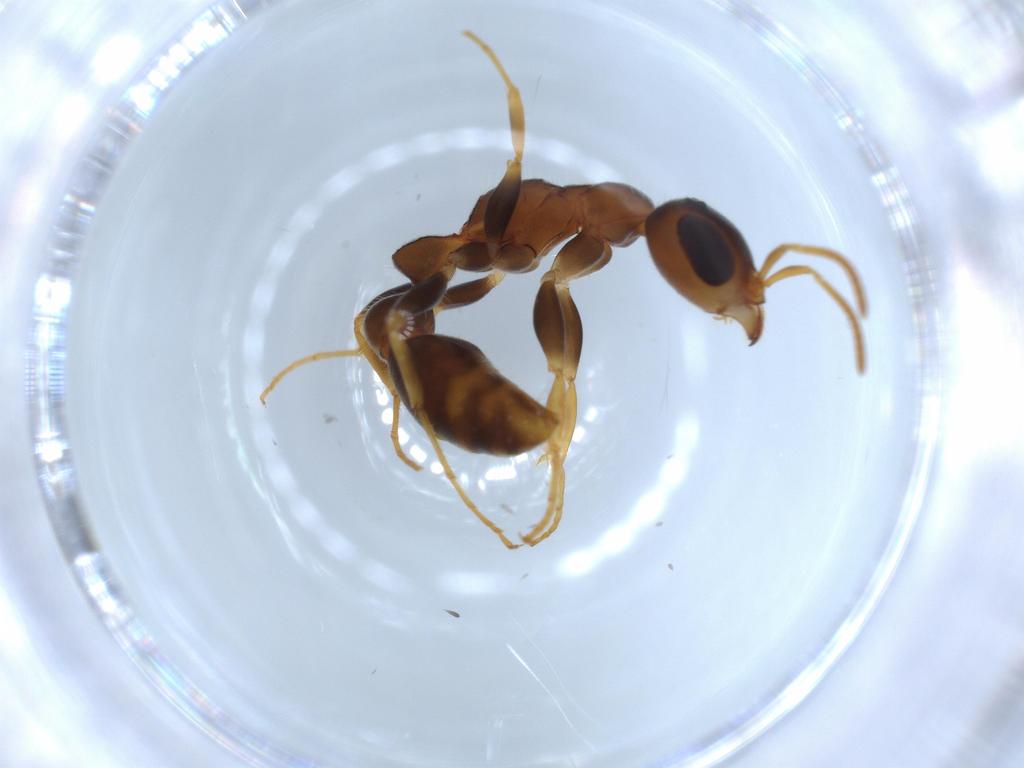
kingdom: Animalia
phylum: Arthropoda
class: Insecta
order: Hymenoptera
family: Formicidae
